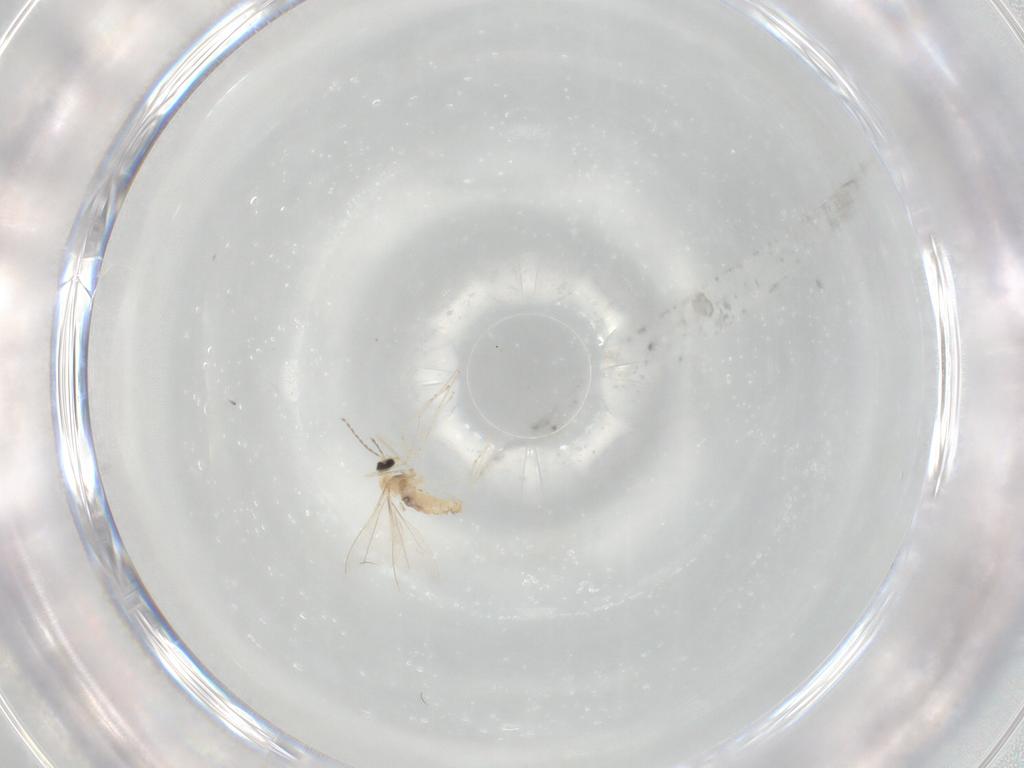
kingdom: Animalia
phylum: Arthropoda
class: Insecta
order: Diptera
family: Cecidomyiidae
